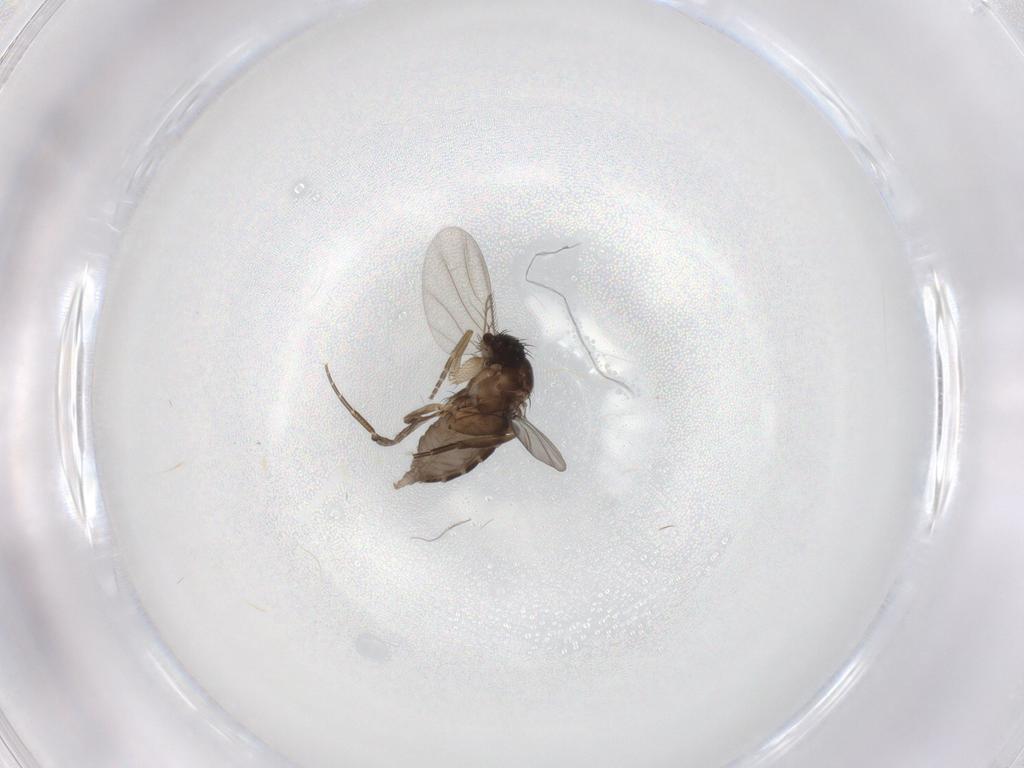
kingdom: Animalia
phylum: Arthropoda
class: Insecta
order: Diptera
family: Phoridae
